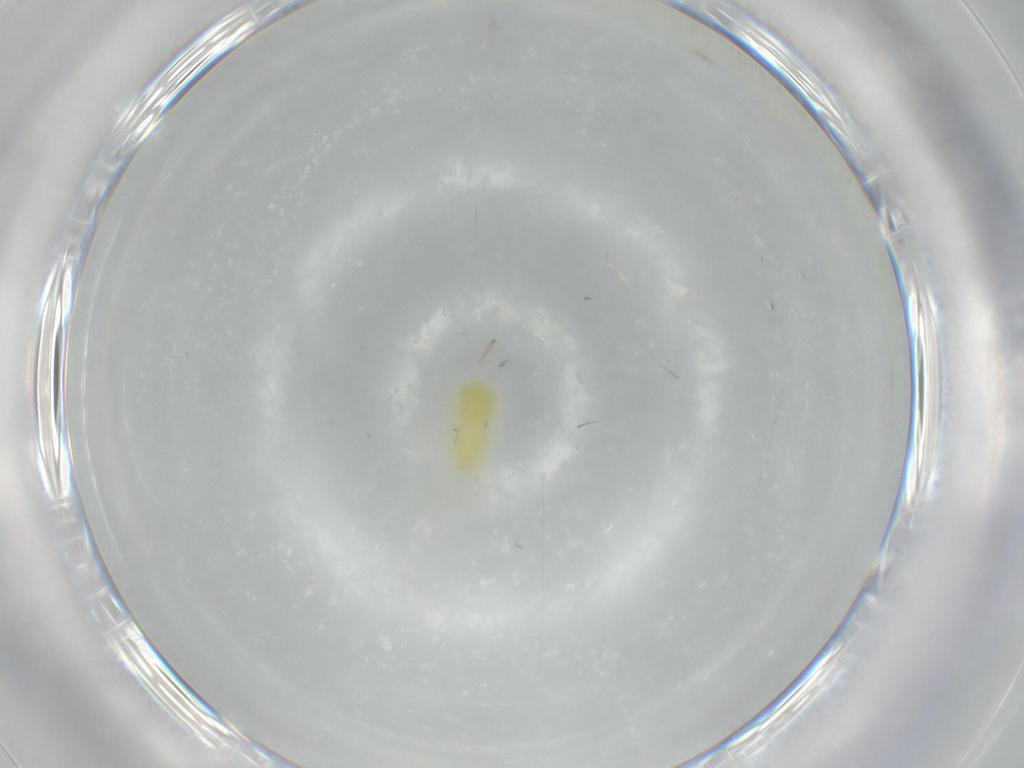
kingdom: Animalia
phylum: Arthropoda
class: Insecta
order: Hemiptera
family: Aleyrodidae
